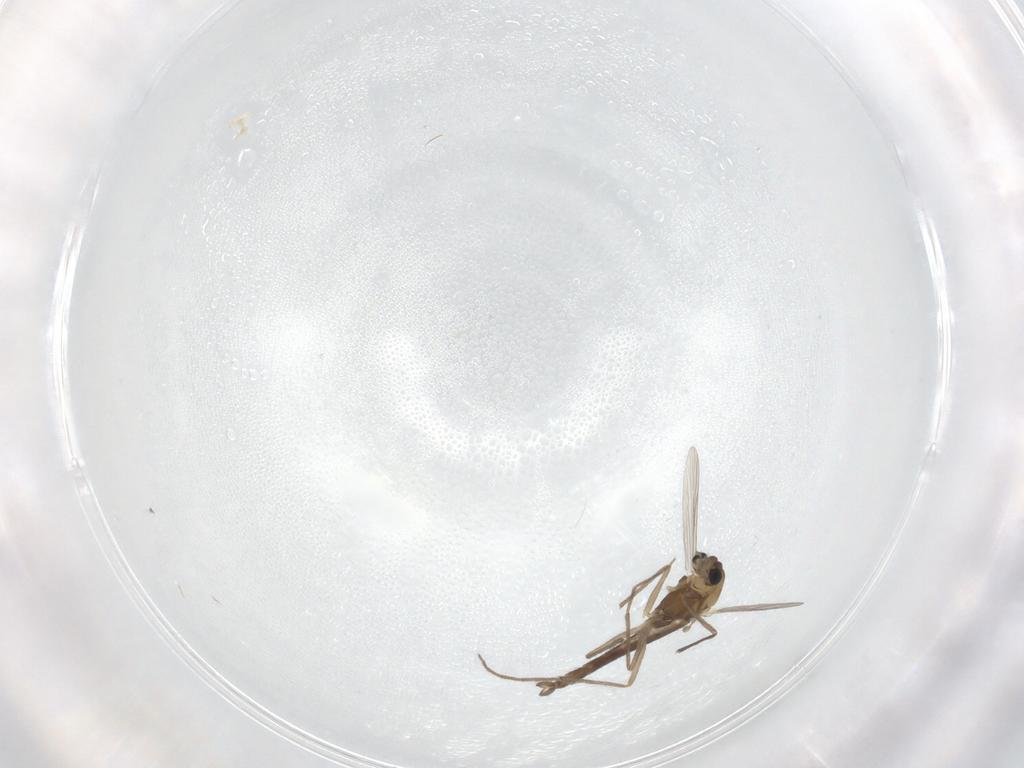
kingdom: Animalia
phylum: Arthropoda
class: Insecta
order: Diptera
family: Chironomidae
